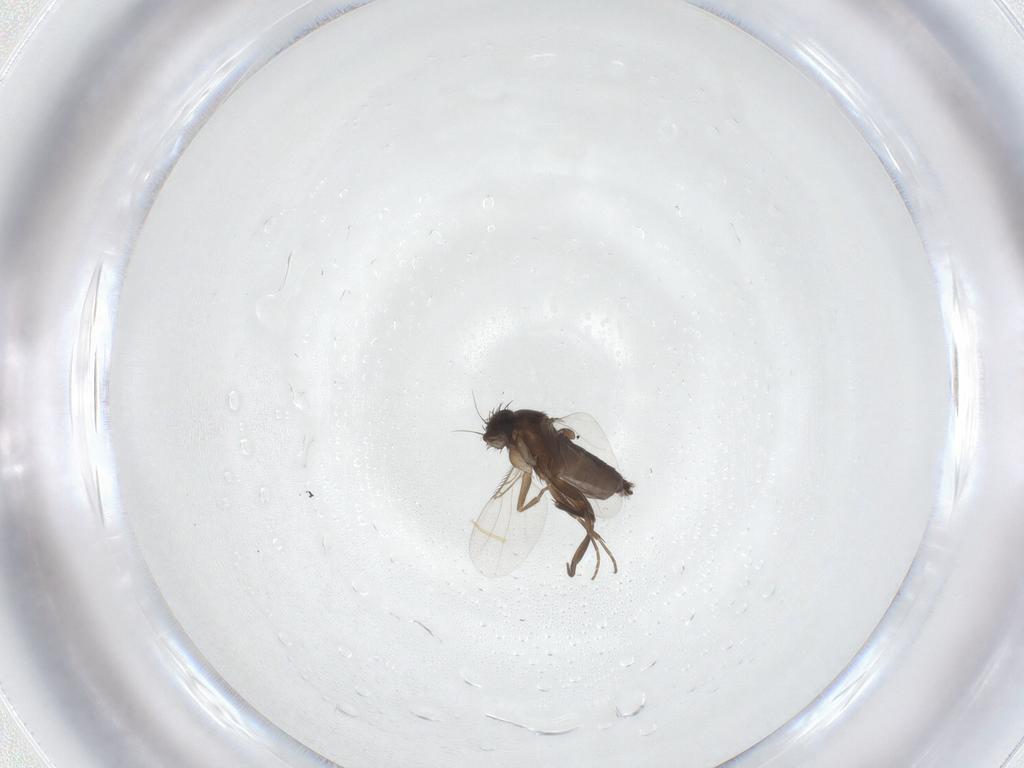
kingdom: Animalia
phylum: Arthropoda
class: Insecta
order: Diptera
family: Phoridae
